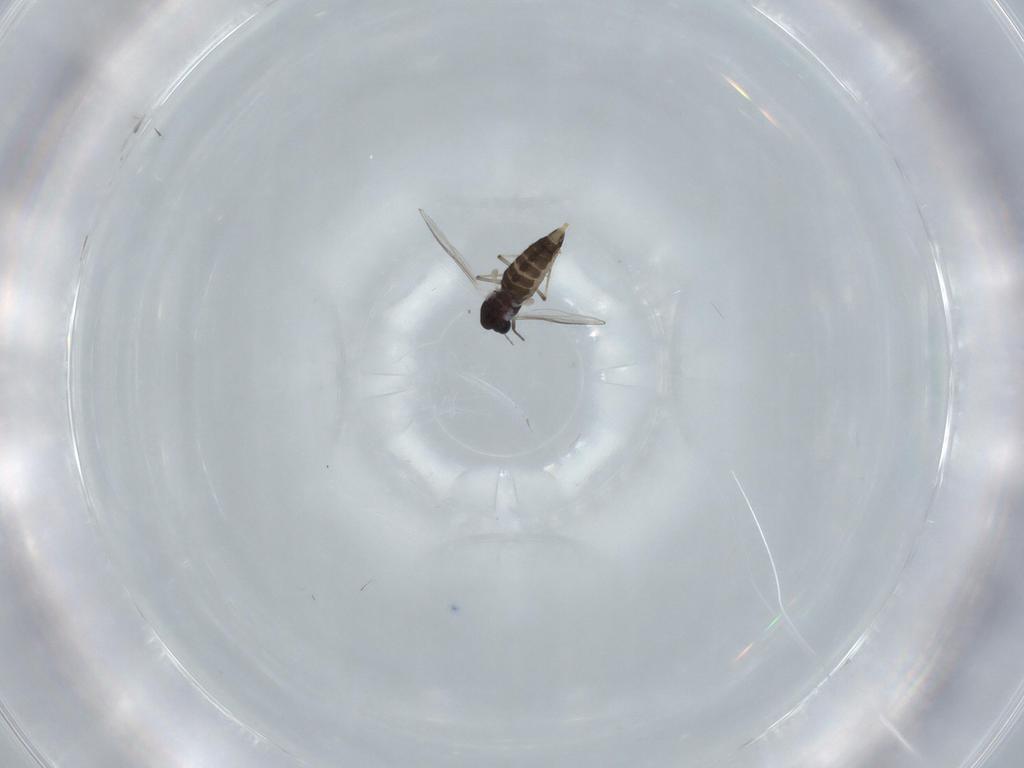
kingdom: Animalia
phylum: Arthropoda
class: Insecta
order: Diptera
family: Chironomidae
